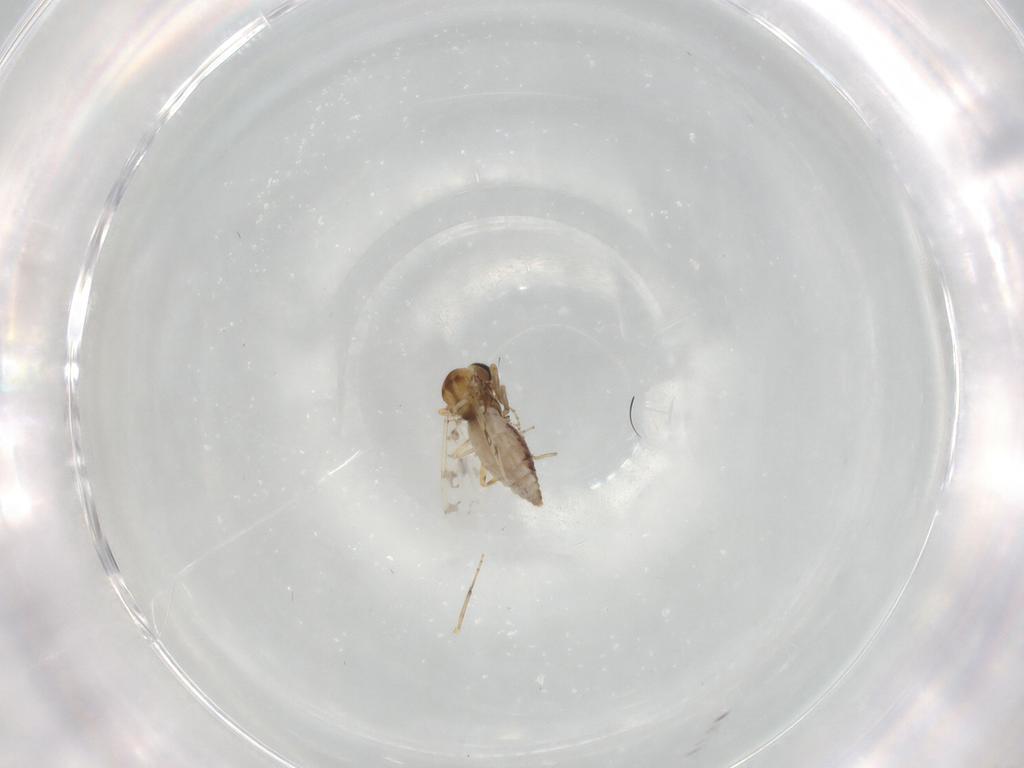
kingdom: Animalia
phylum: Arthropoda
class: Insecta
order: Diptera
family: Ceratopogonidae
